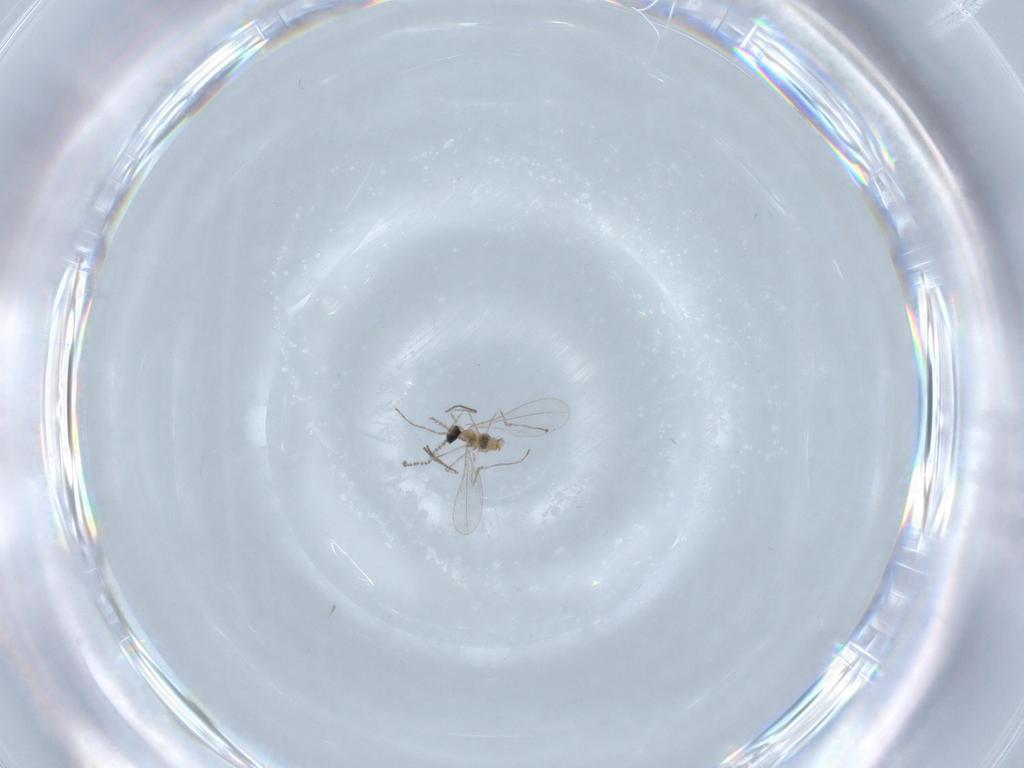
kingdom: Animalia
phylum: Arthropoda
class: Insecta
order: Diptera
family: Cecidomyiidae
